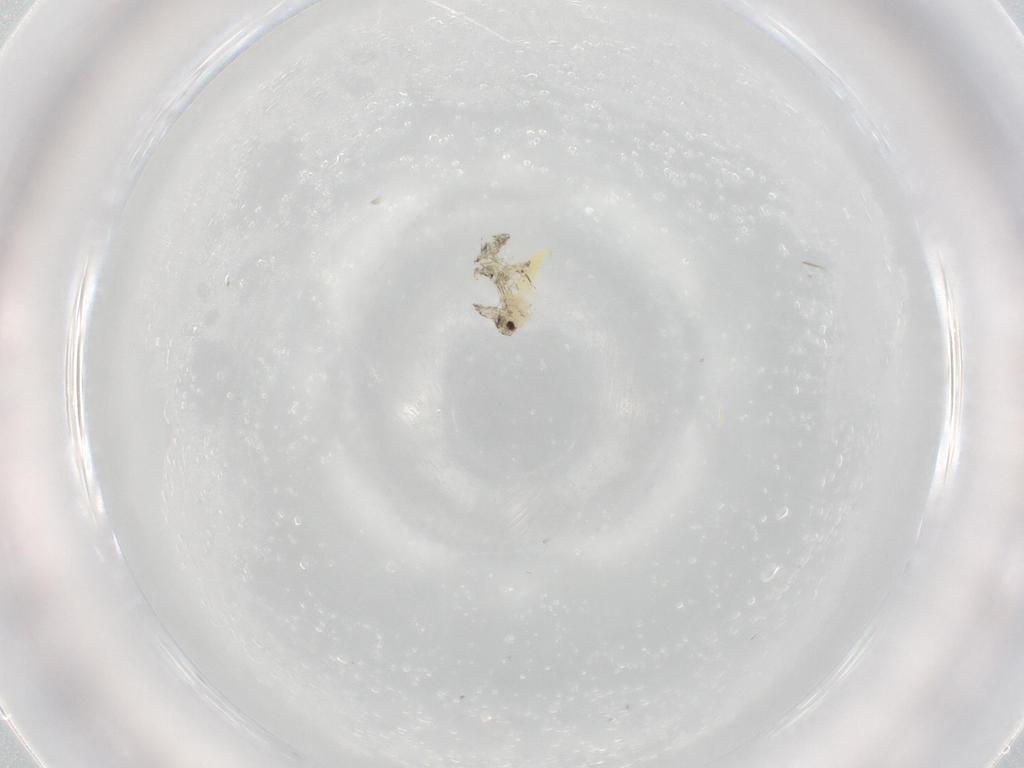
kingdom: Animalia
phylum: Arthropoda
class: Insecta
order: Hemiptera
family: Aleyrodidae
